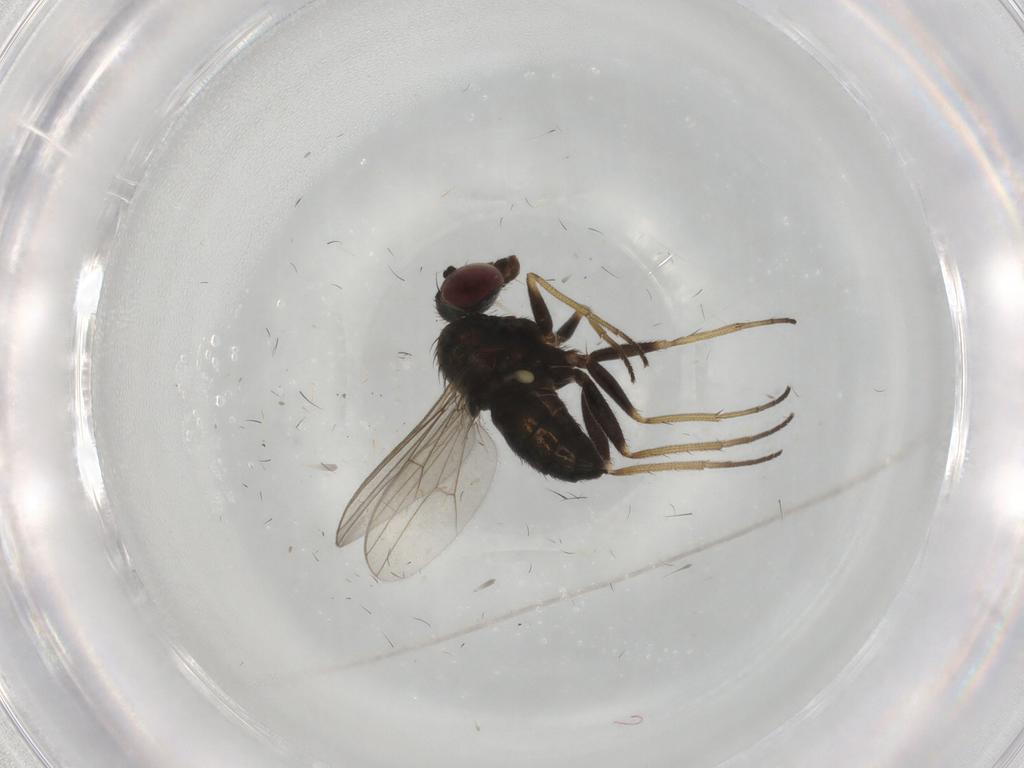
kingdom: Animalia
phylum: Arthropoda
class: Insecta
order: Diptera
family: Dolichopodidae
